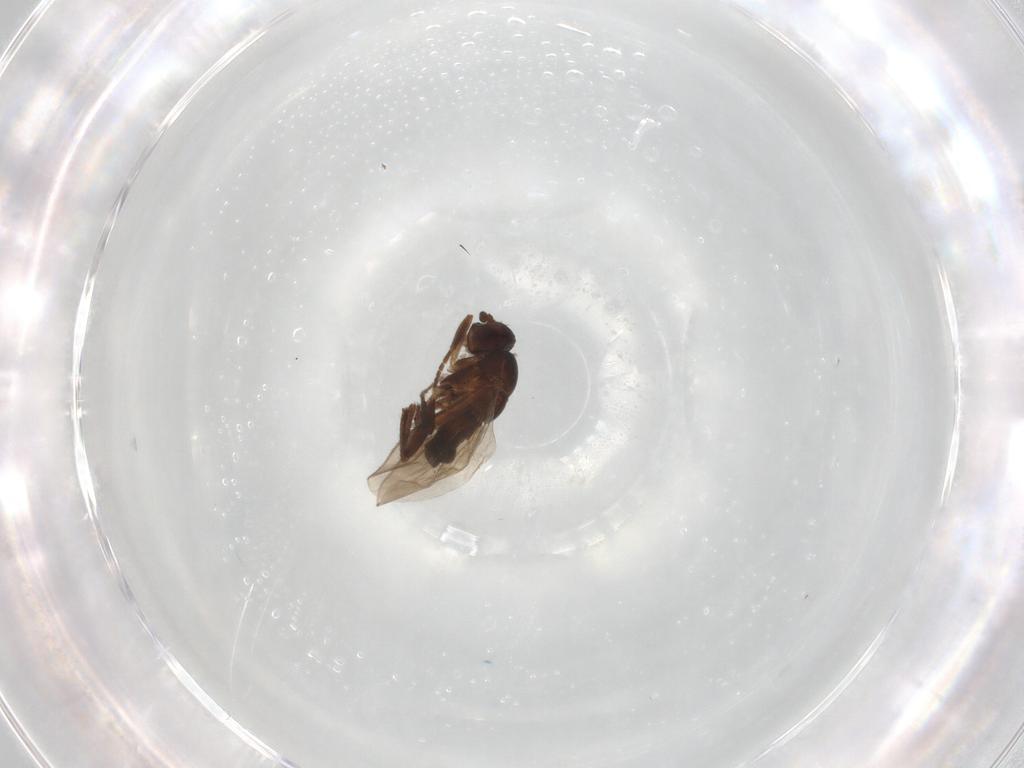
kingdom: Animalia
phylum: Arthropoda
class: Insecta
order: Diptera
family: Sphaeroceridae
